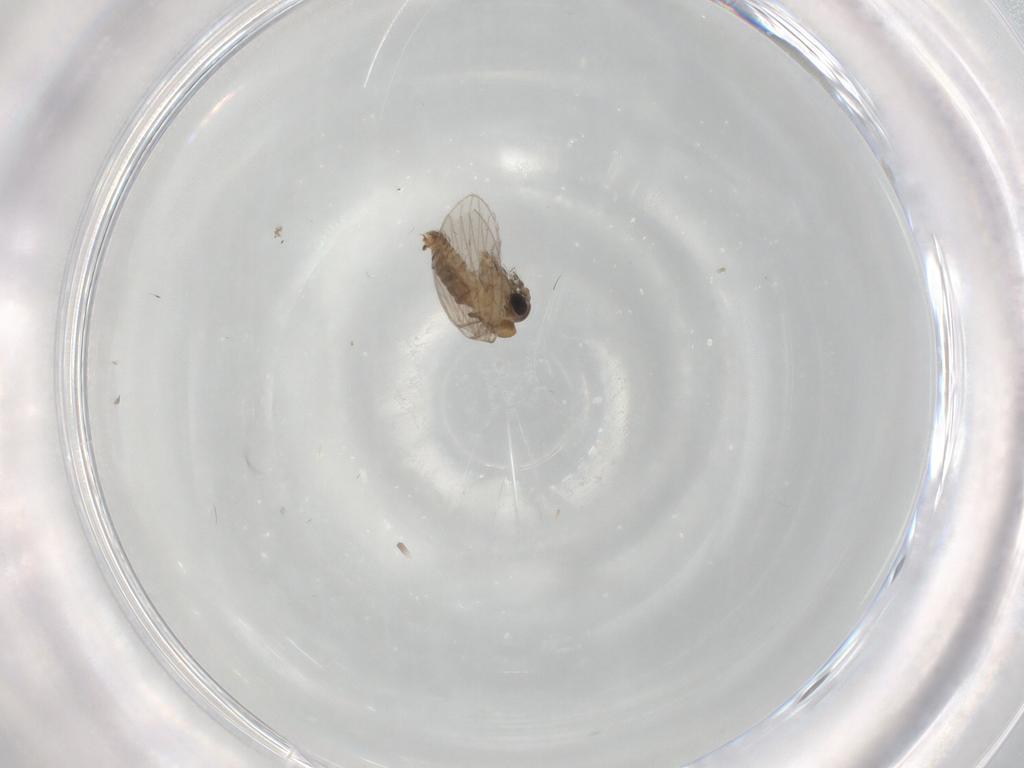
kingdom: Animalia
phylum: Arthropoda
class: Insecta
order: Diptera
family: Psychodidae
